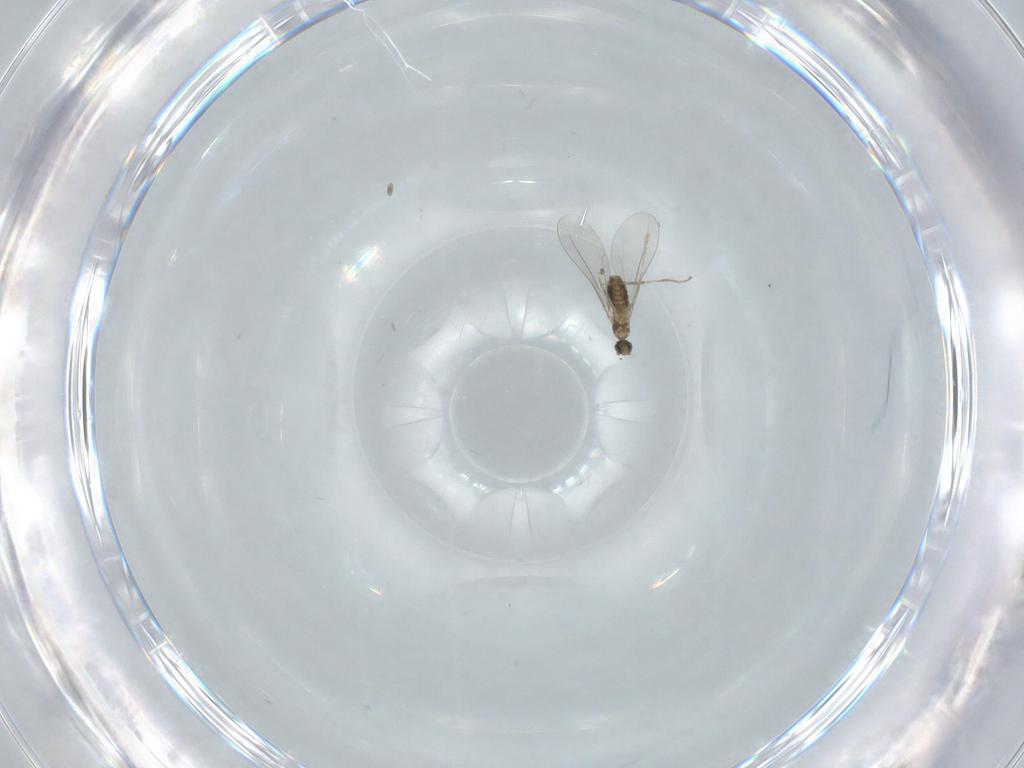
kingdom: Animalia
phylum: Arthropoda
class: Insecta
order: Diptera
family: Cecidomyiidae
